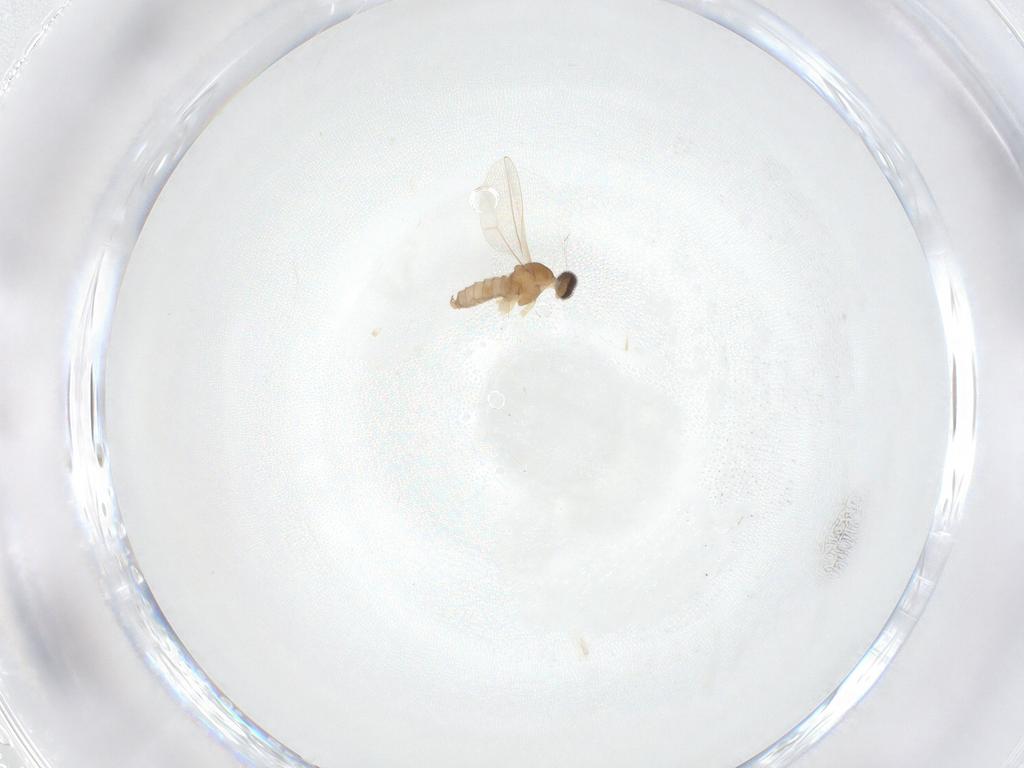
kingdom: Animalia
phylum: Arthropoda
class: Insecta
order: Diptera
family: Cecidomyiidae
